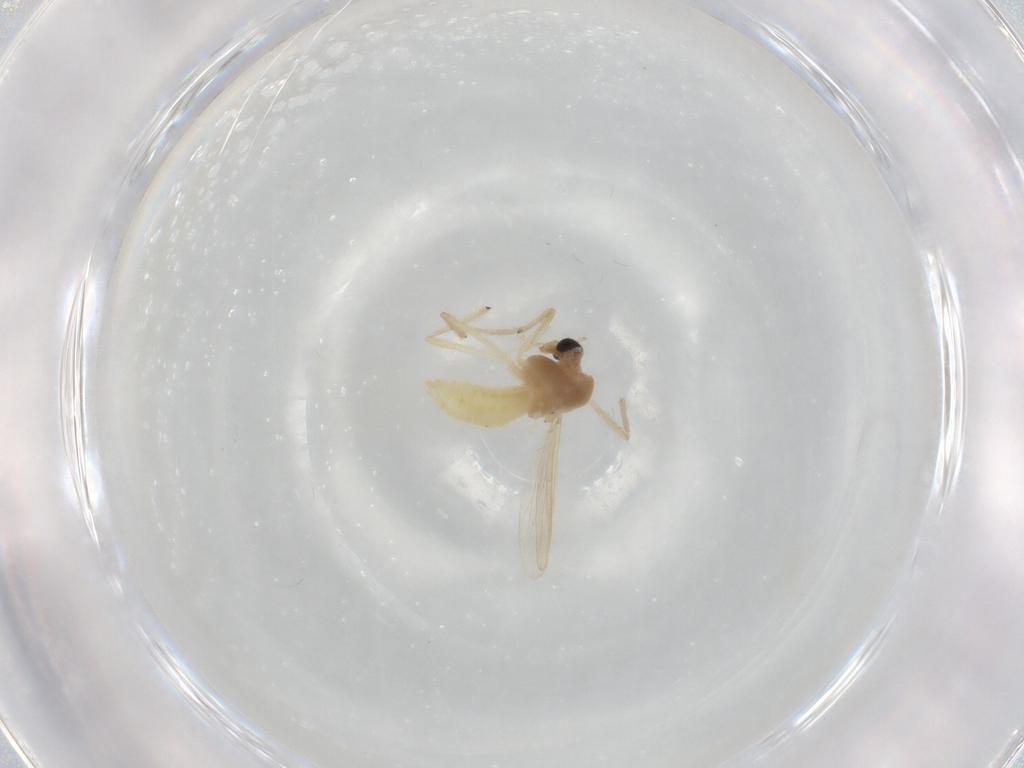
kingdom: Animalia
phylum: Arthropoda
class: Insecta
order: Diptera
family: Chironomidae
